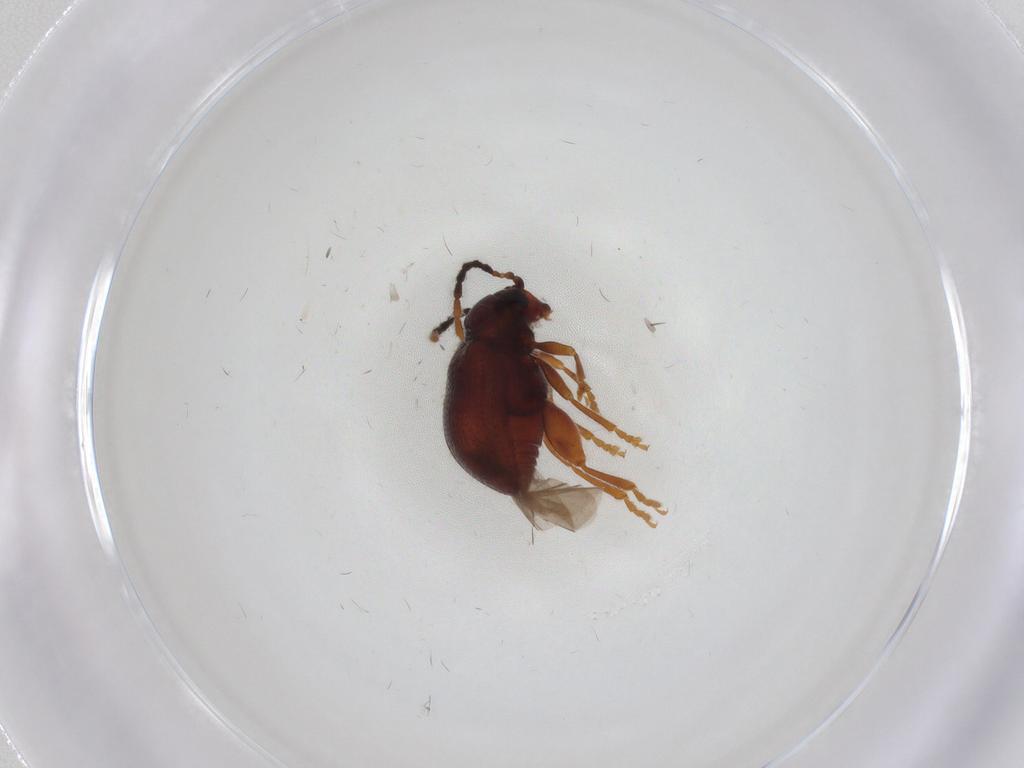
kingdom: Animalia
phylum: Arthropoda
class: Insecta
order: Coleoptera
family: Chrysomelidae
